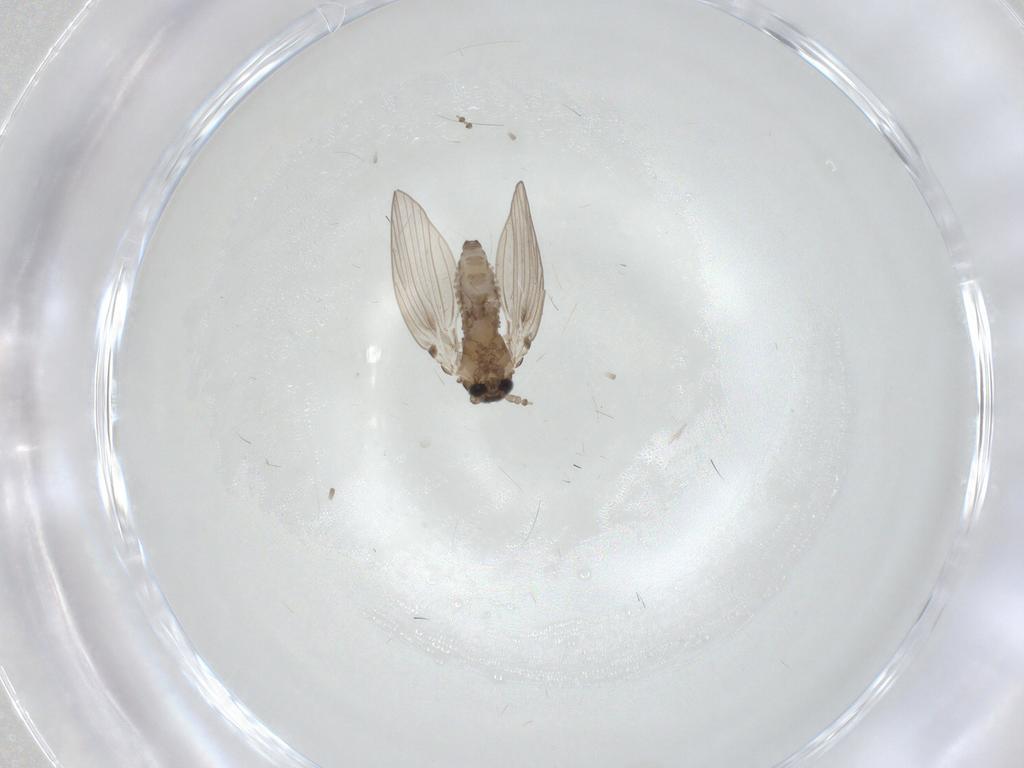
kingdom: Animalia
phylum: Arthropoda
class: Insecta
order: Diptera
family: Psychodidae
